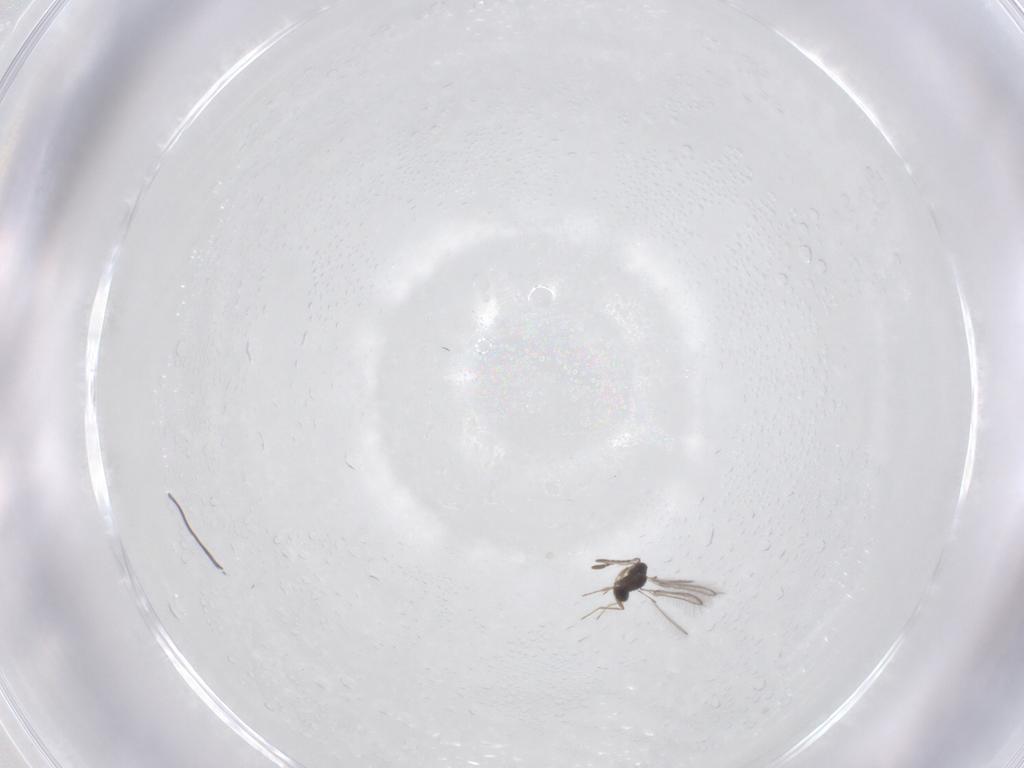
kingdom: Animalia
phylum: Arthropoda
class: Insecta
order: Hymenoptera
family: Mymaridae
